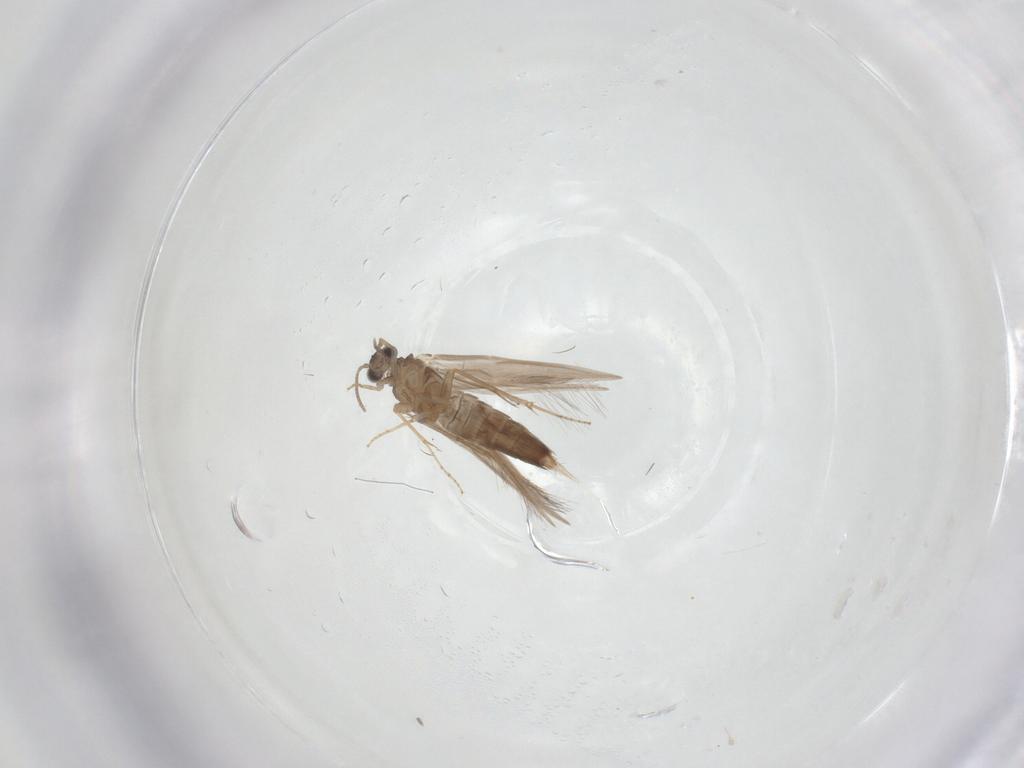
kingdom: Animalia
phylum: Arthropoda
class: Insecta
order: Trichoptera
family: Hydroptilidae
